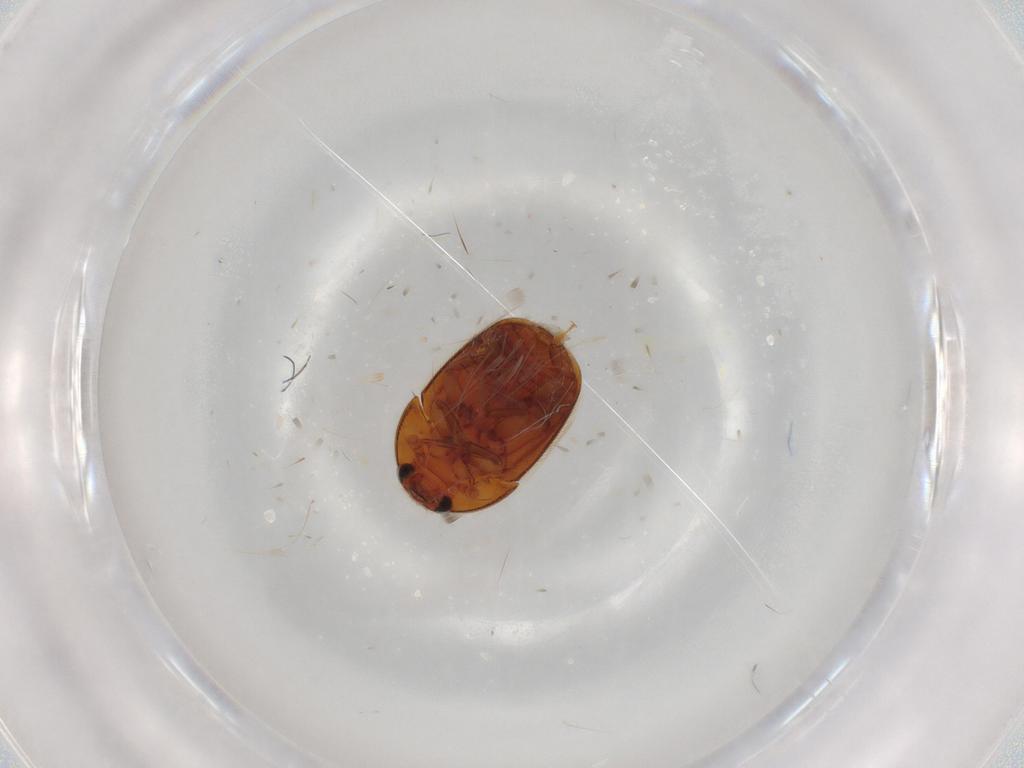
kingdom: Animalia
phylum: Arthropoda
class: Insecta
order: Coleoptera
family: Nitidulidae
